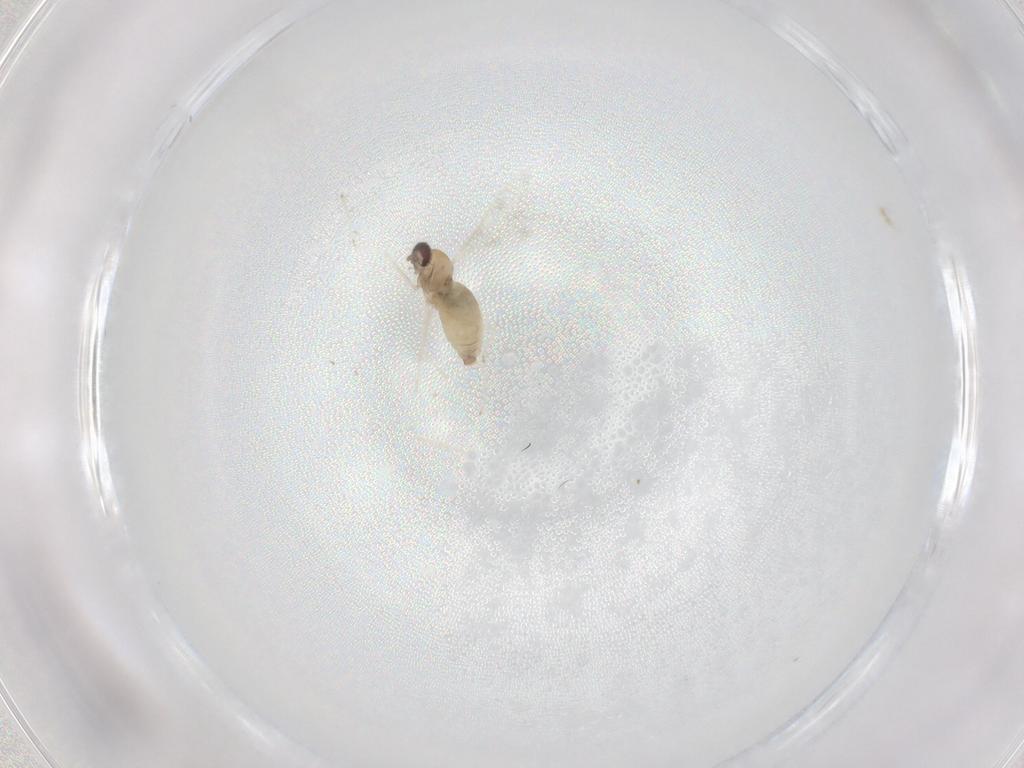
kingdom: Animalia
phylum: Arthropoda
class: Insecta
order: Diptera
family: Cecidomyiidae
